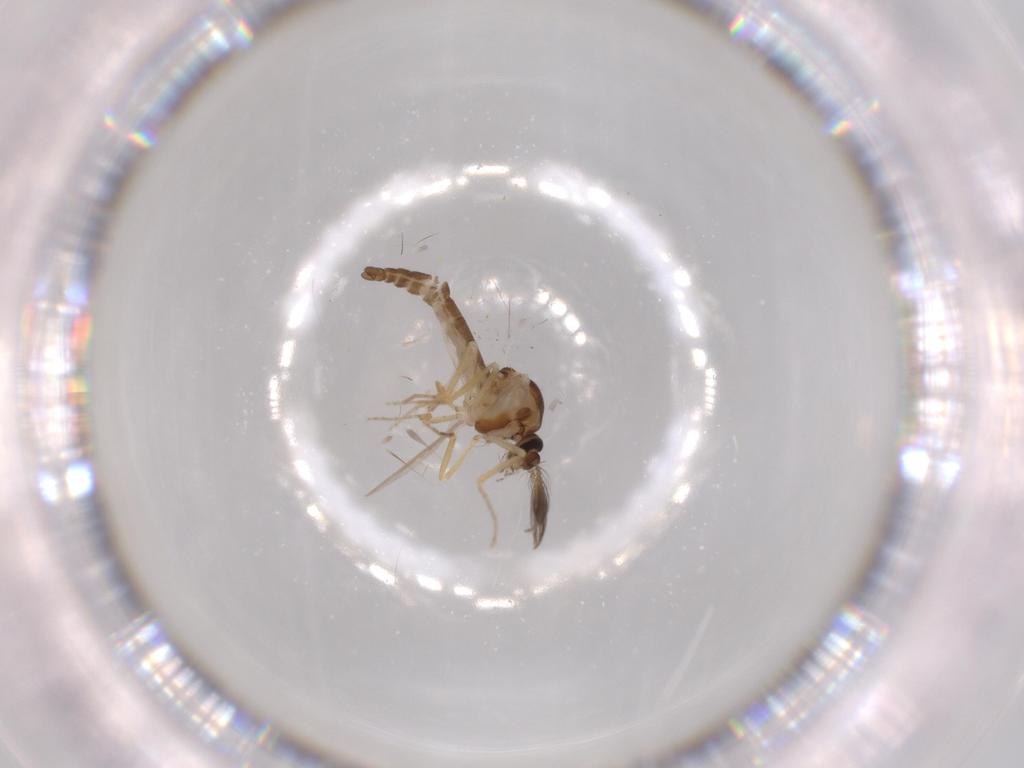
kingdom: Animalia
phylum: Arthropoda
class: Insecta
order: Diptera
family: Ceratopogonidae
